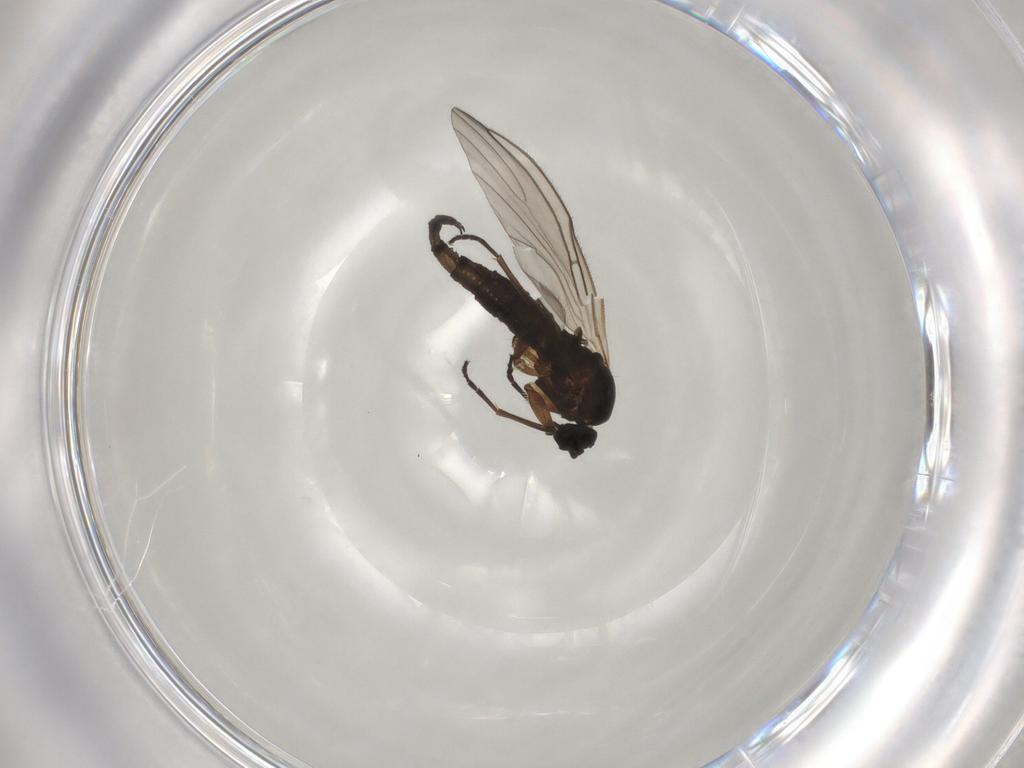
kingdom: Animalia
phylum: Arthropoda
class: Insecta
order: Diptera
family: Sciaridae
